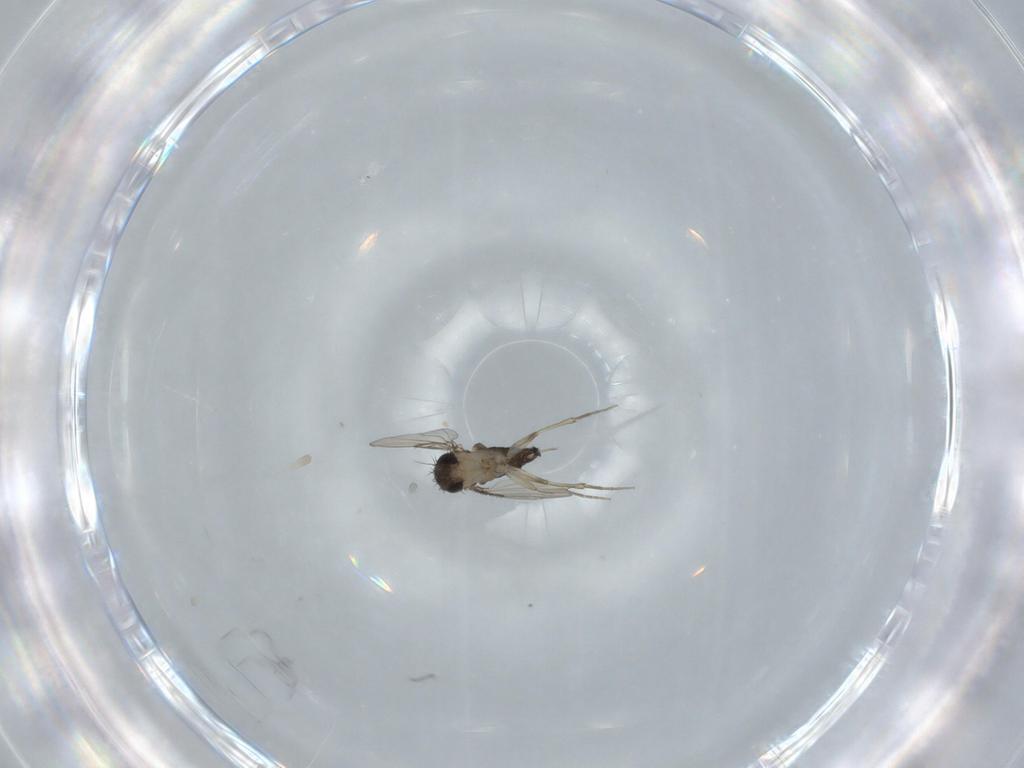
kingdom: Animalia
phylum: Arthropoda
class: Insecta
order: Diptera
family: Phoridae
